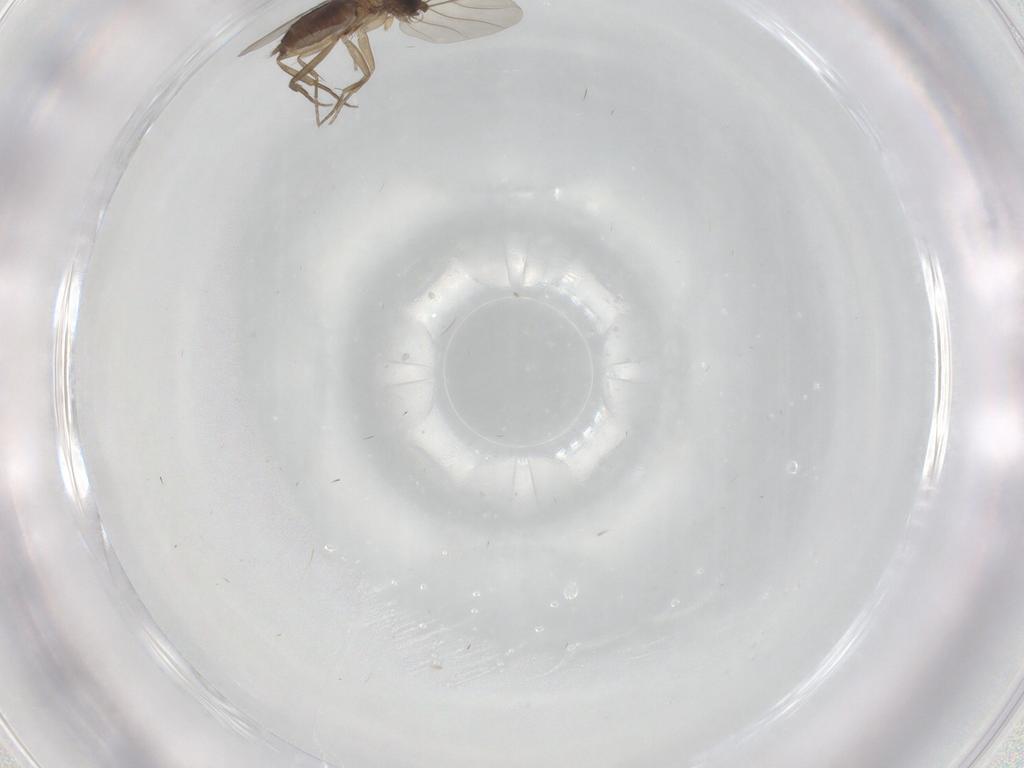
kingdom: Animalia
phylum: Arthropoda
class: Insecta
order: Diptera
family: Phoridae
